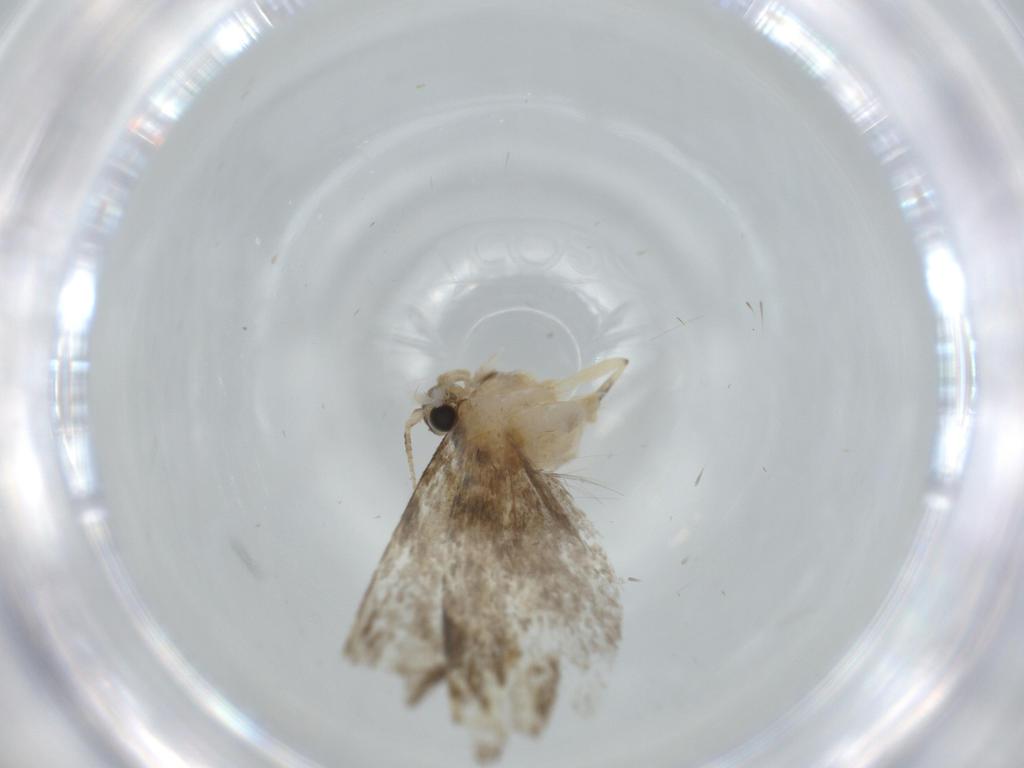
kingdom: Animalia
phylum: Arthropoda
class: Insecta
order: Lepidoptera
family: Tineidae
